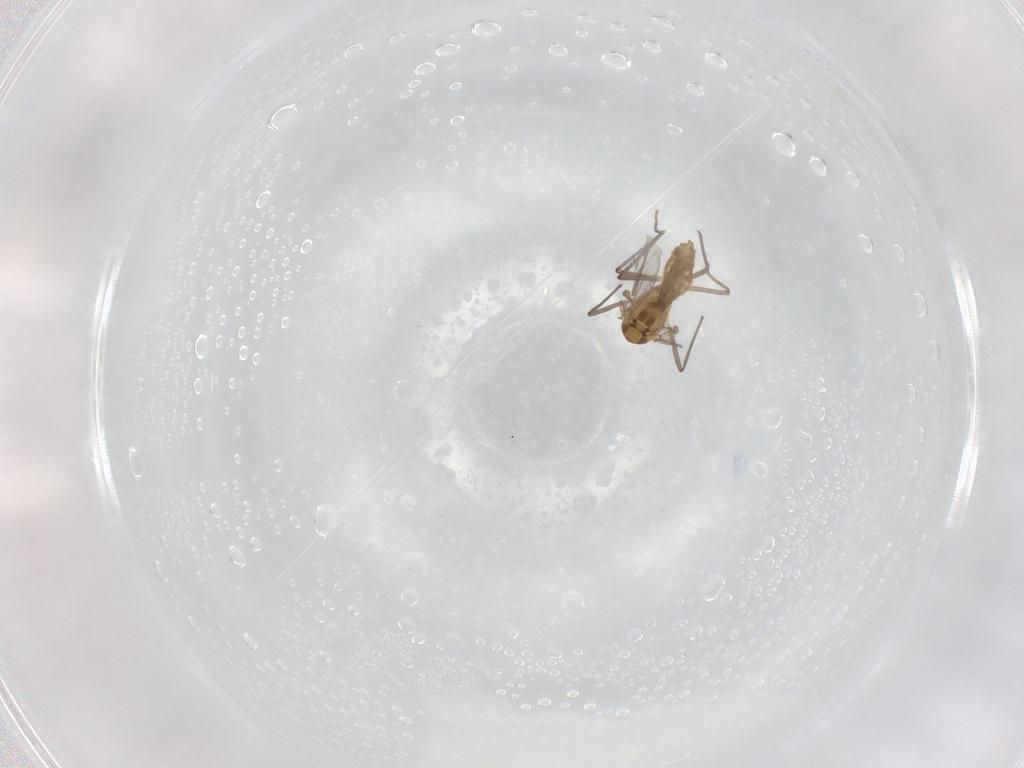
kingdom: Animalia
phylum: Arthropoda
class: Insecta
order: Diptera
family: Chironomidae
